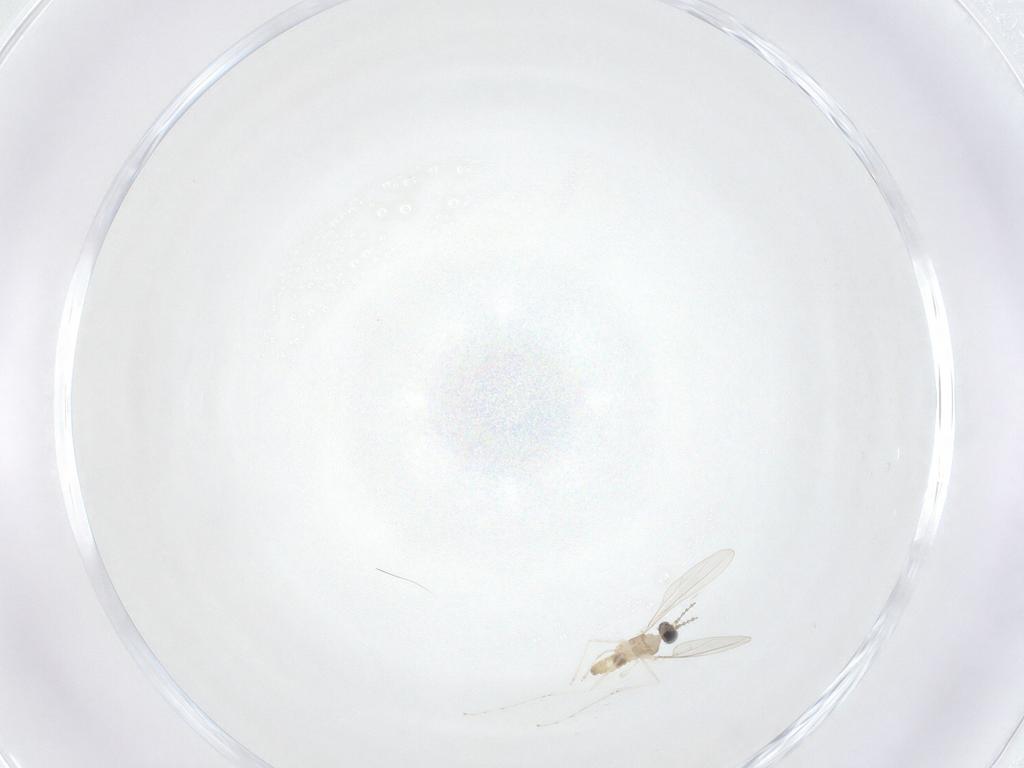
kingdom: Animalia
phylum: Arthropoda
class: Insecta
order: Diptera
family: Cecidomyiidae
